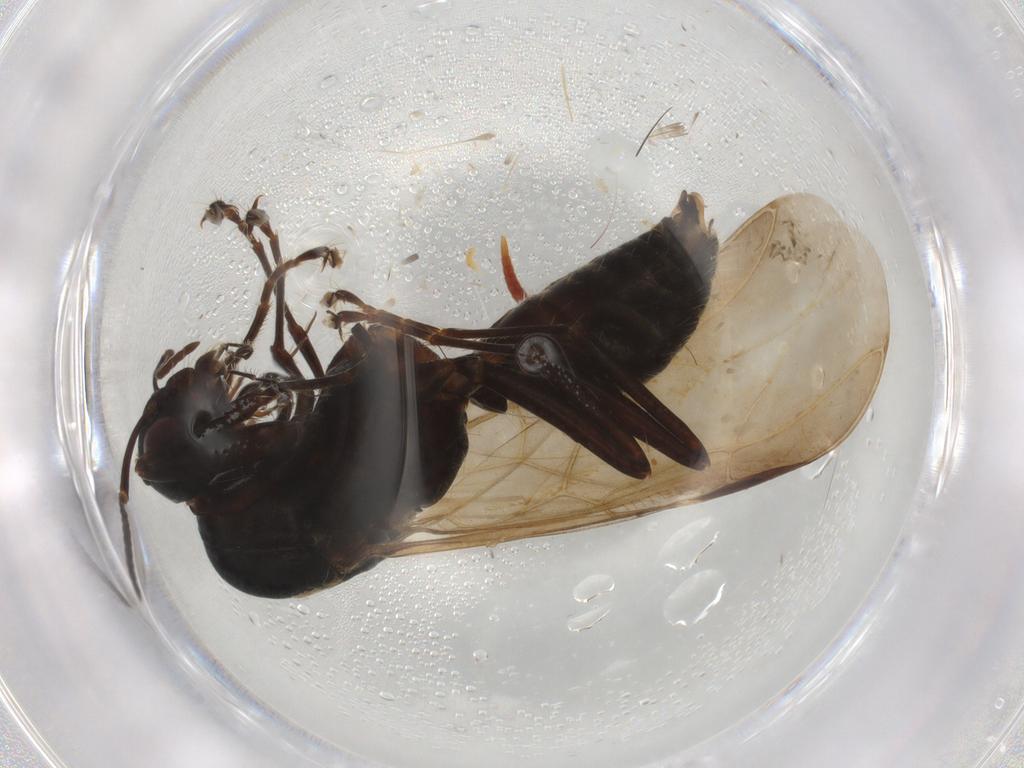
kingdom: Animalia
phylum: Arthropoda
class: Insecta
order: Hymenoptera
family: Formicidae
